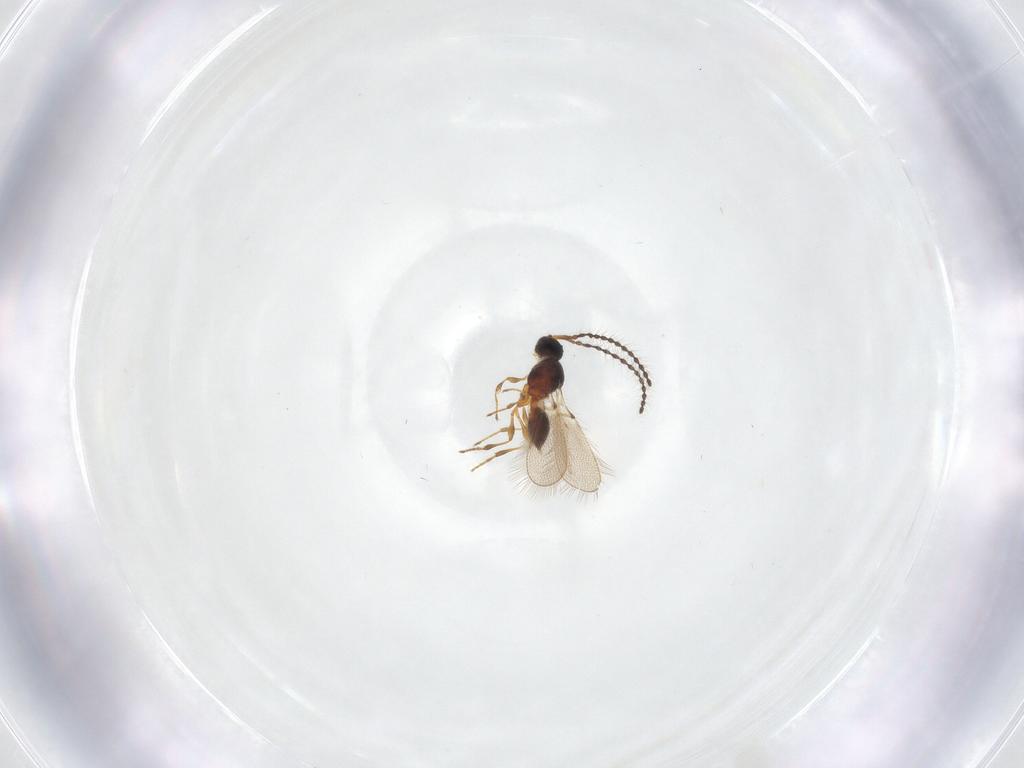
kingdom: Animalia
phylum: Arthropoda
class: Insecta
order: Hymenoptera
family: Diapriidae
